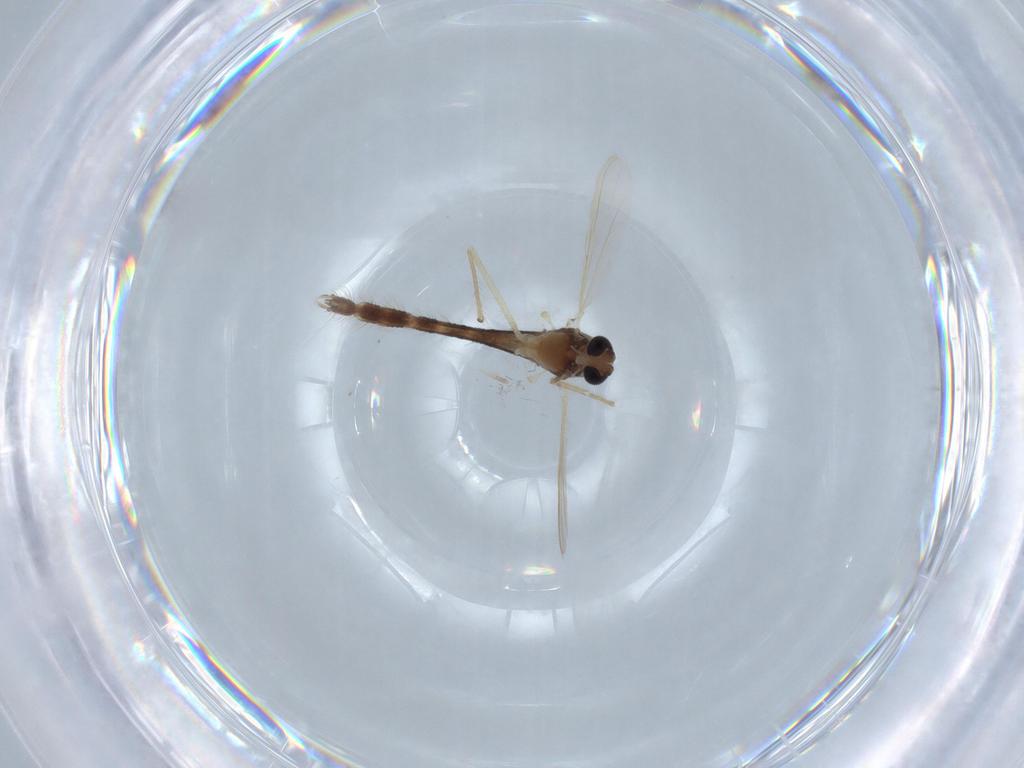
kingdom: Animalia
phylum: Arthropoda
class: Insecta
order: Diptera
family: Chironomidae
